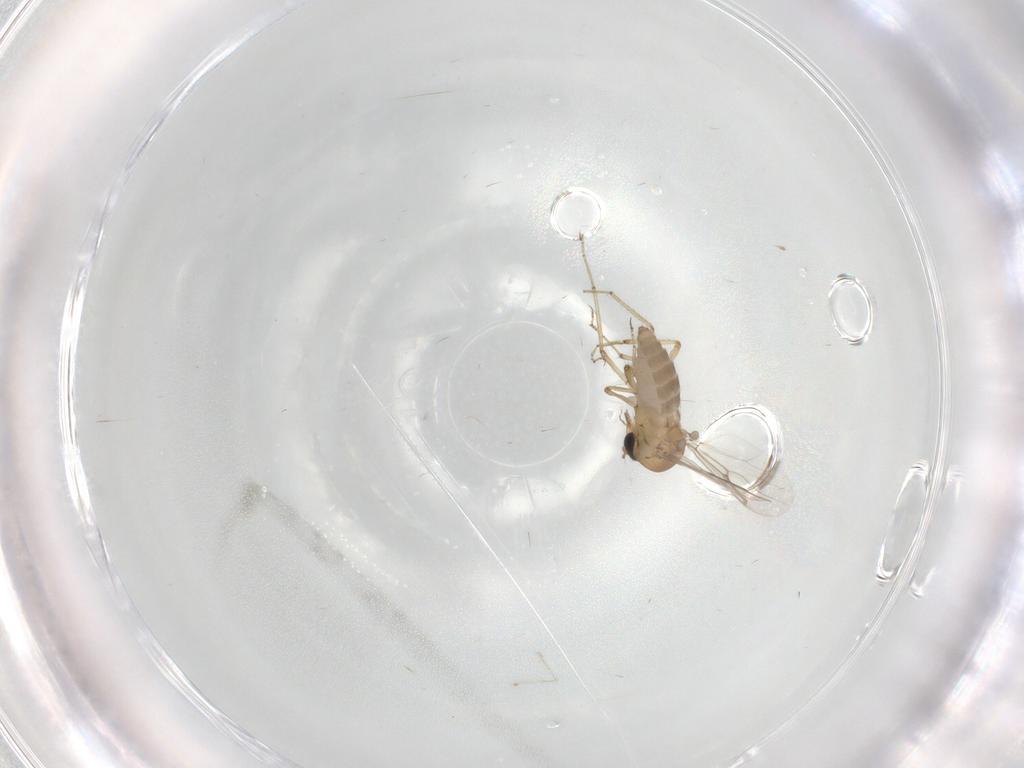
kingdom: Animalia
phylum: Arthropoda
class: Insecta
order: Diptera
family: Ceratopogonidae
